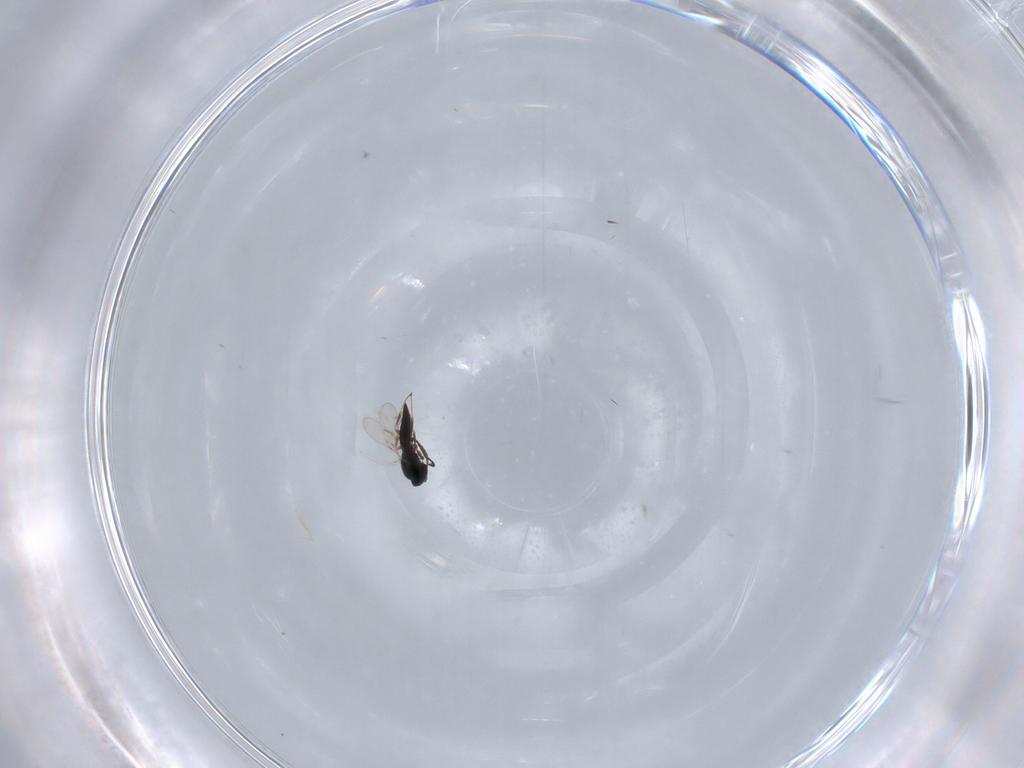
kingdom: Animalia
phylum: Arthropoda
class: Insecta
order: Hymenoptera
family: Scelionidae
